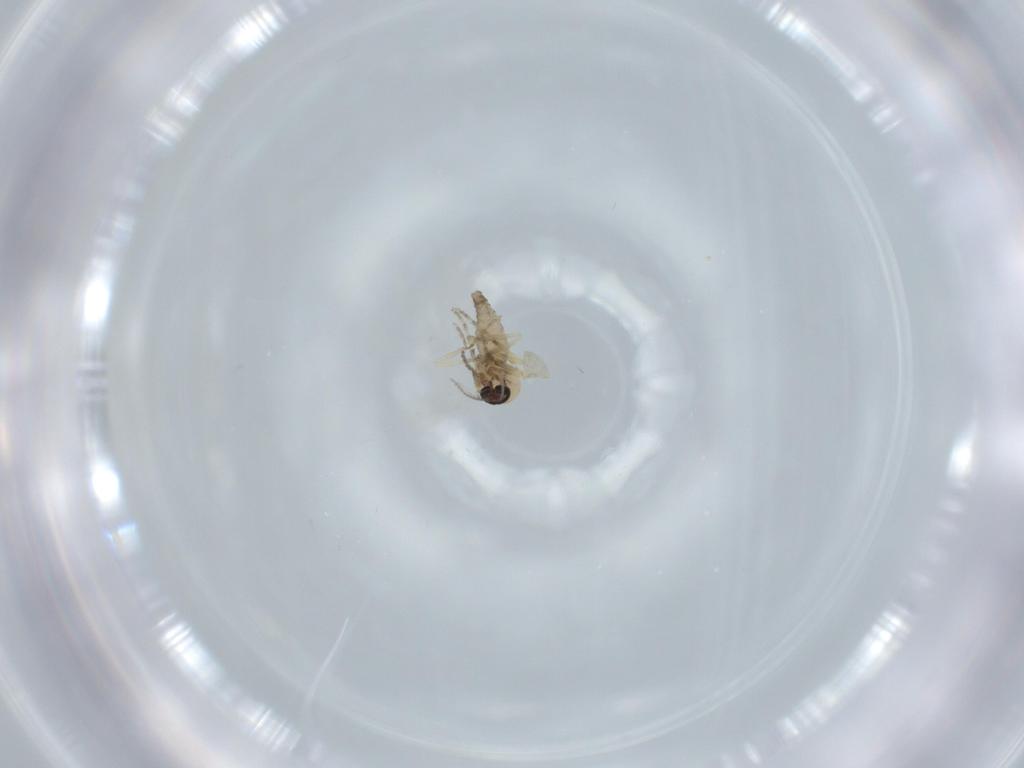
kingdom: Animalia
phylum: Arthropoda
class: Insecta
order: Diptera
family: Ceratopogonidae
